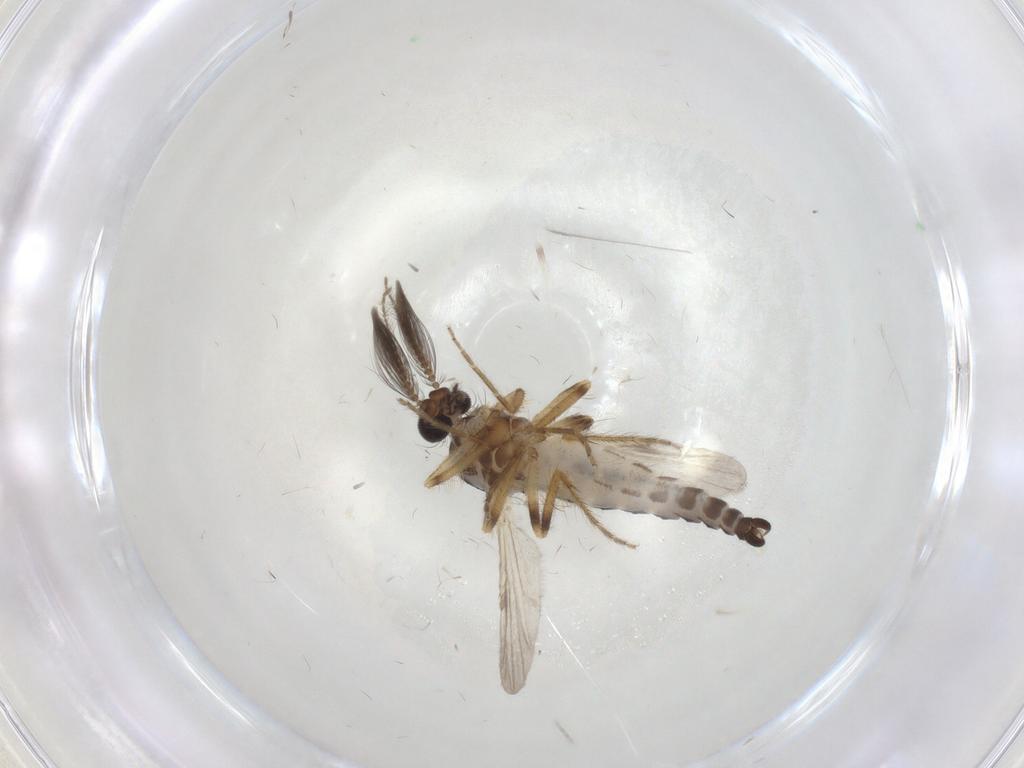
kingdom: Animalia
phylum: Arthropoda
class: Insecta
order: Diptera
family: Ceratopogonidae
